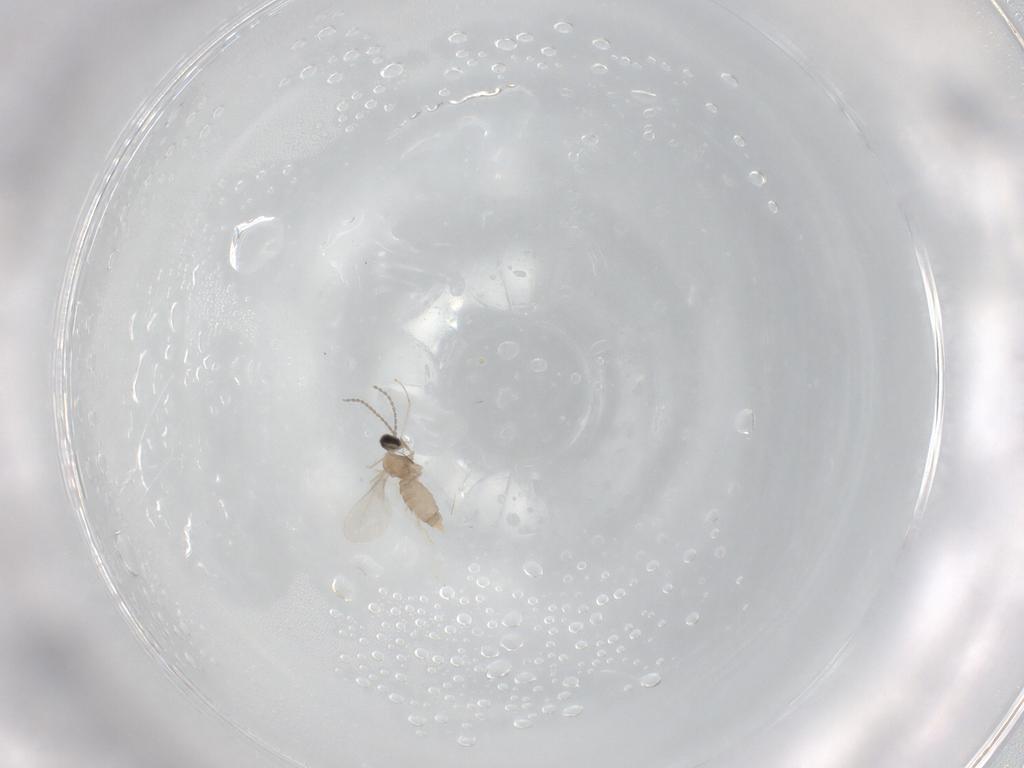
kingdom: Animalia
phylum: Arthropoda
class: Insecta
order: Diptera
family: Cecidomyiidae
